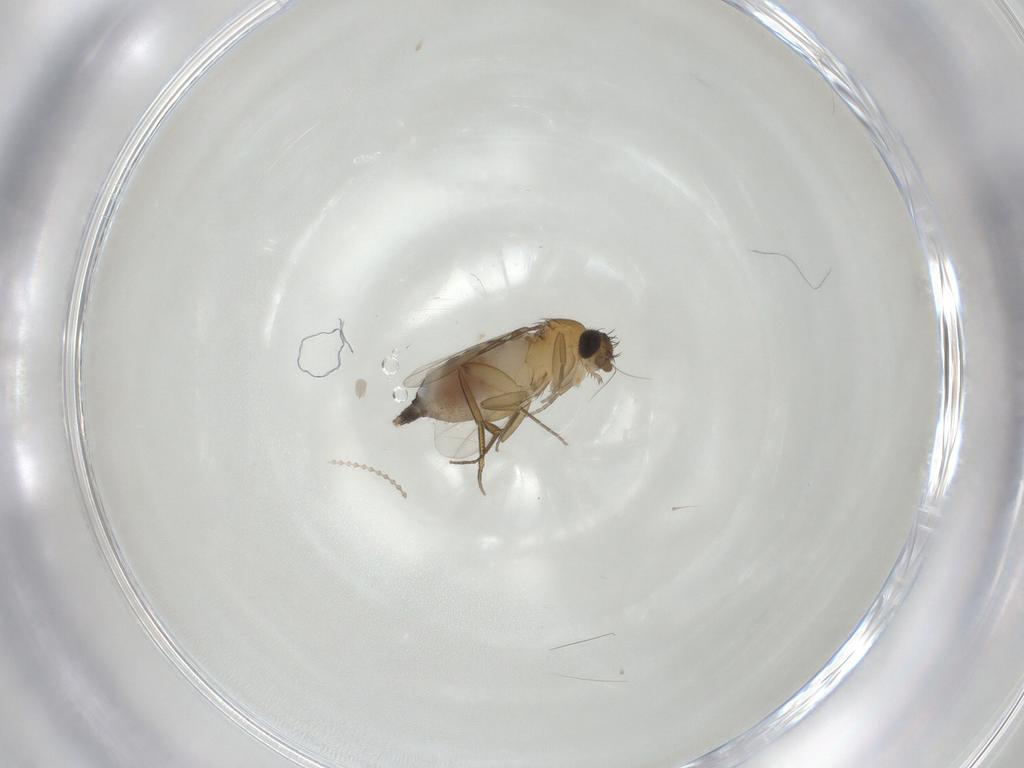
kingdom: Animalia
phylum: Arthropoda
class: Insecta
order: Diptera
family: Phoridae
